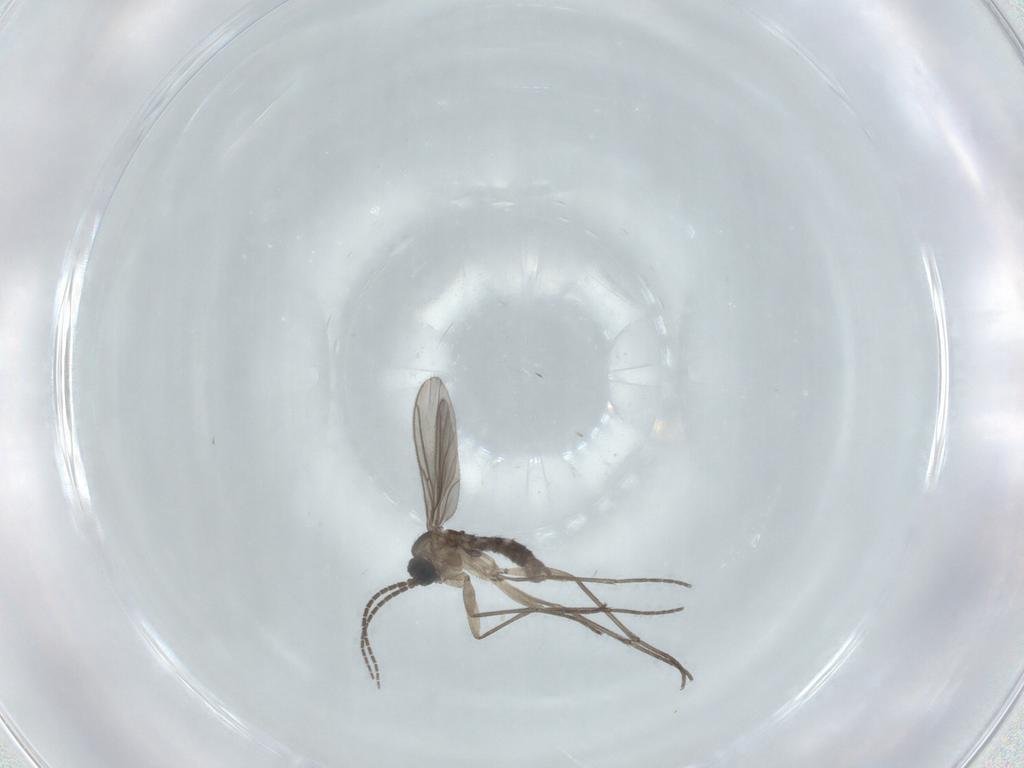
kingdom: Animalia
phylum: Arthropoda
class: Insecta
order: Diptera
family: Sciaridae
